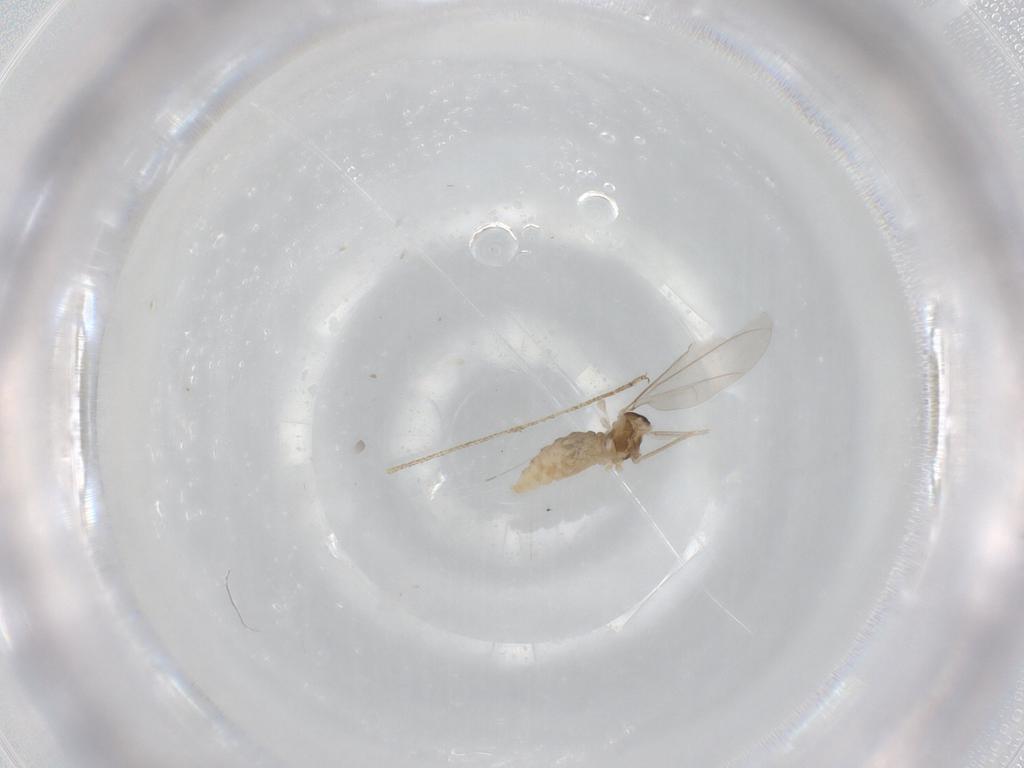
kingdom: Animalia
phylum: Arthropoda
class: Insecta
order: Diptera
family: Culicidae
